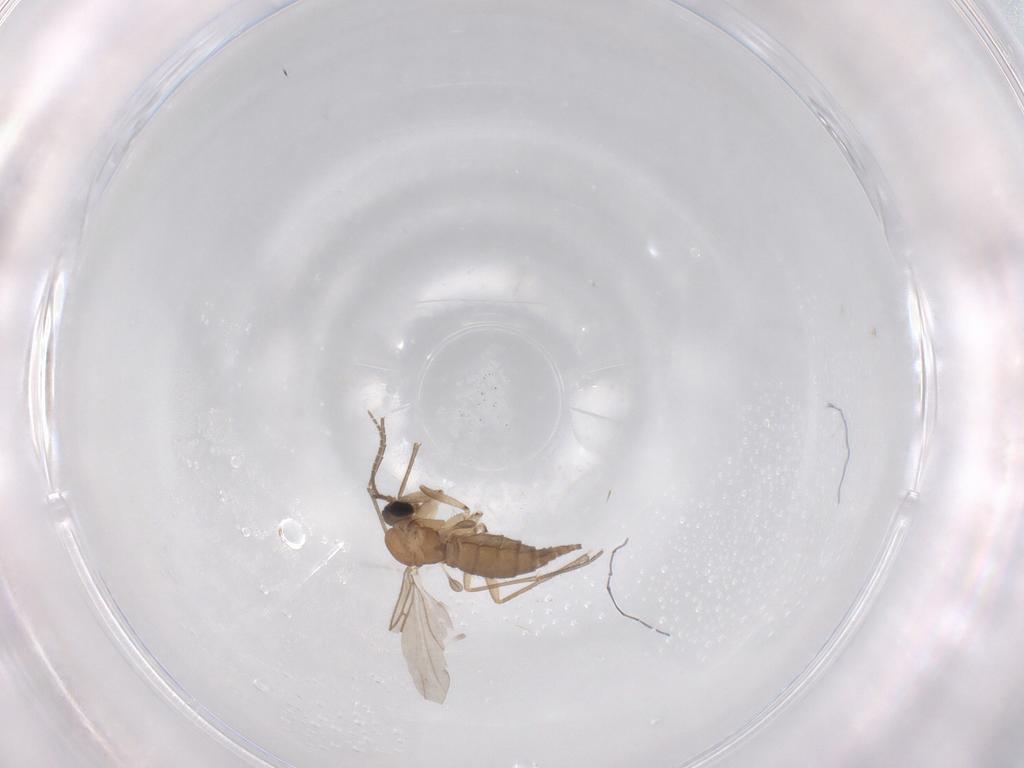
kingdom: Animalia
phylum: Arthropoda
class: Insecta
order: Diptera
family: Sciaridae
